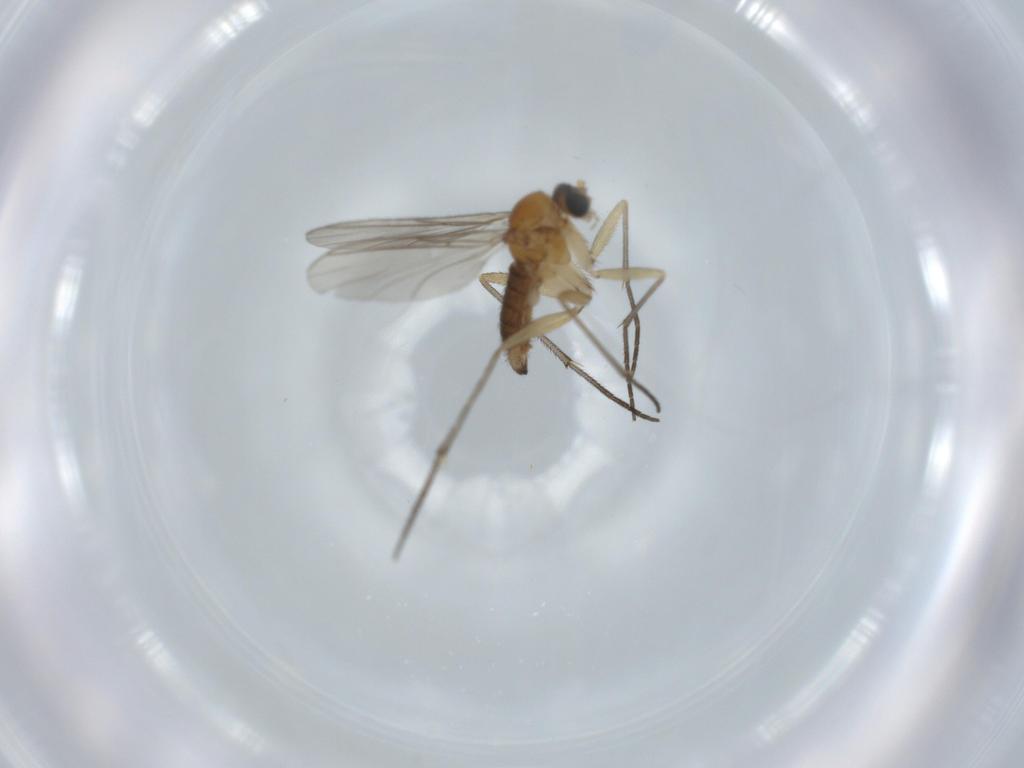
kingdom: Animalia
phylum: Arthropoda
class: Insecta
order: Diptera
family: Sciaridae
